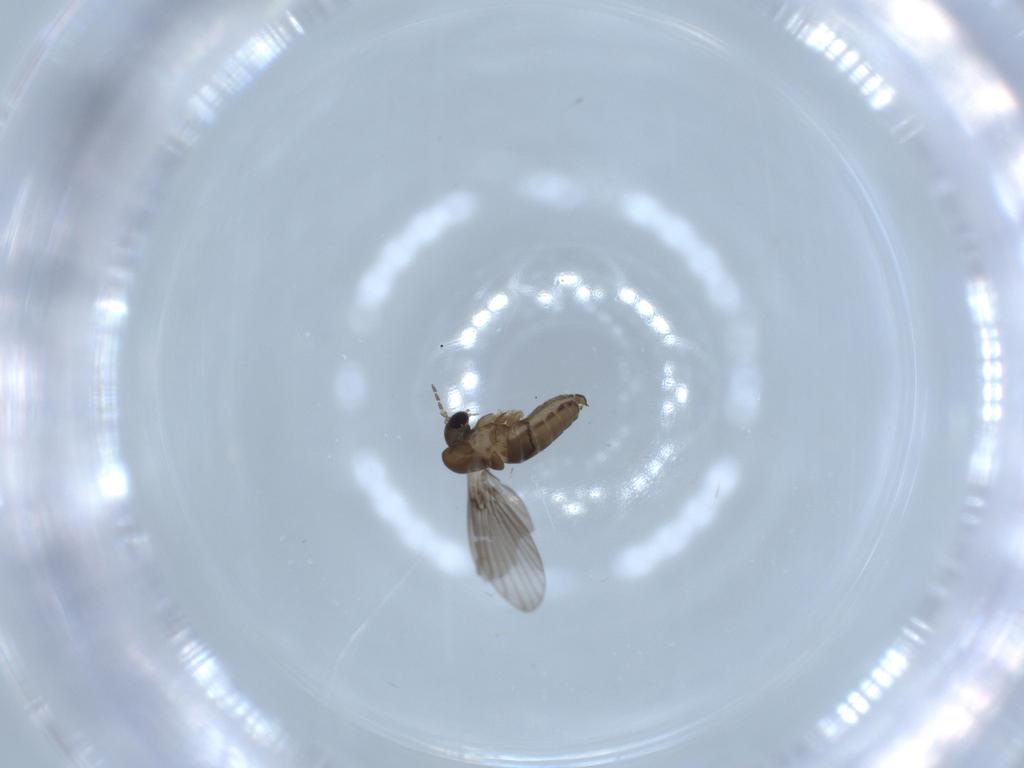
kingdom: Animalia
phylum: Arthropoda
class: Insecta
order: Diptera
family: Psychodidae
